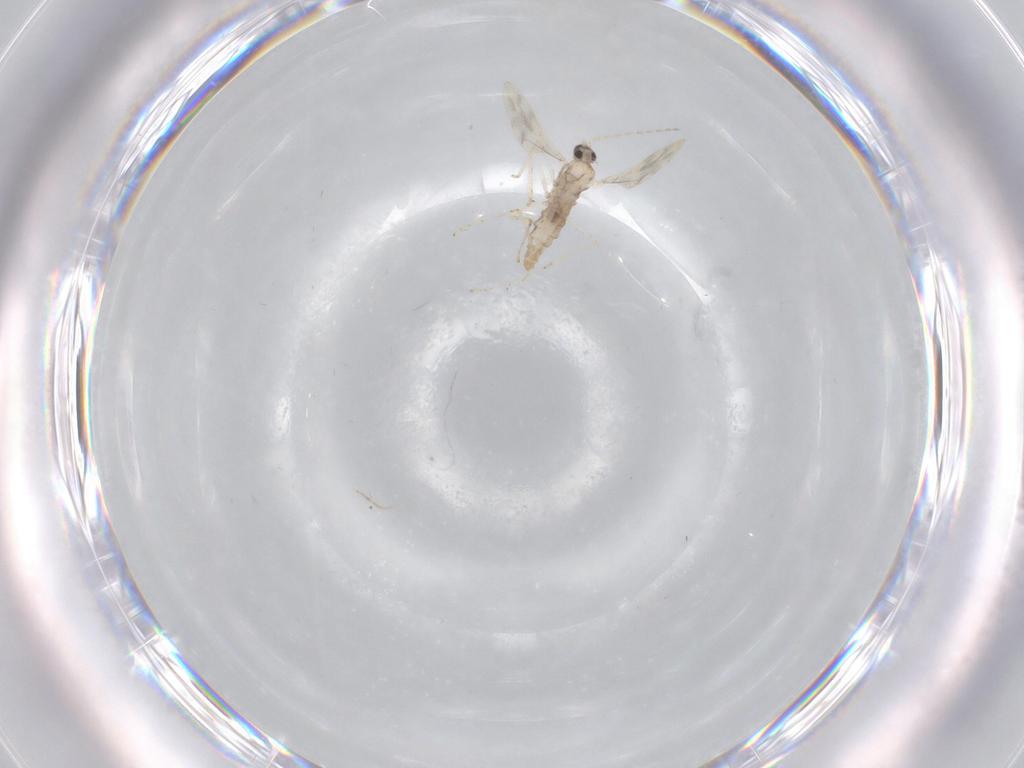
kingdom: Animalia
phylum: Arthropoda
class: Insecta
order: Diptera
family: Cecidomyiidae
